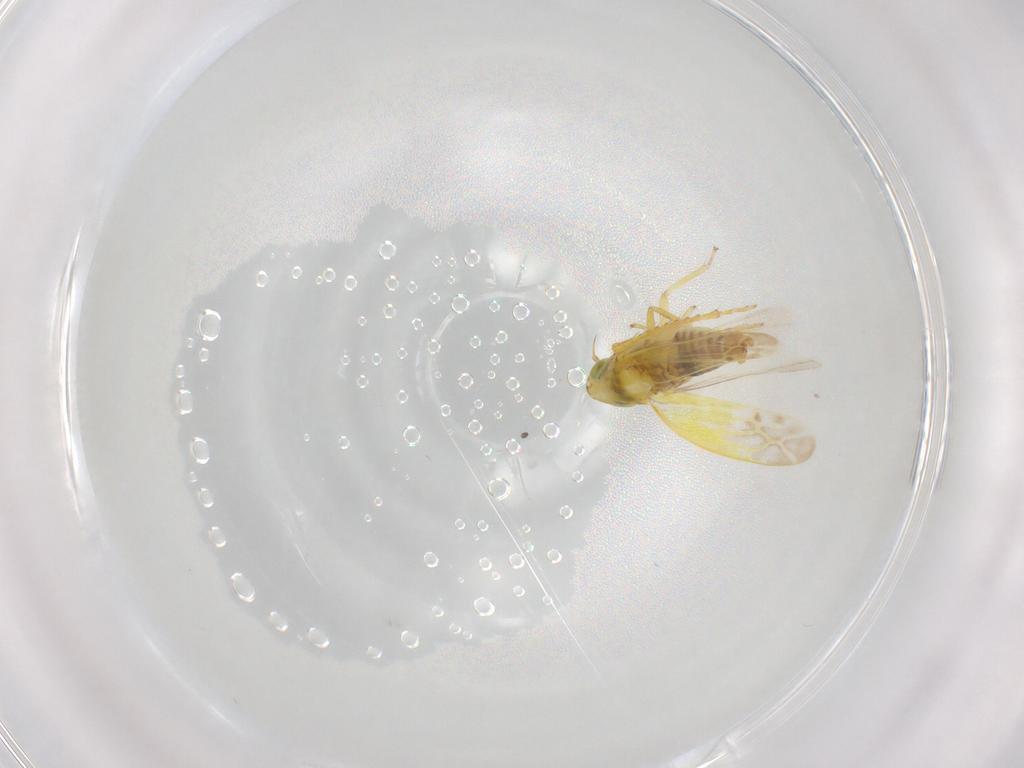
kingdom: Animalia
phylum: Arthropoda
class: Insecta
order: Hemiptera
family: Cicadellidae
